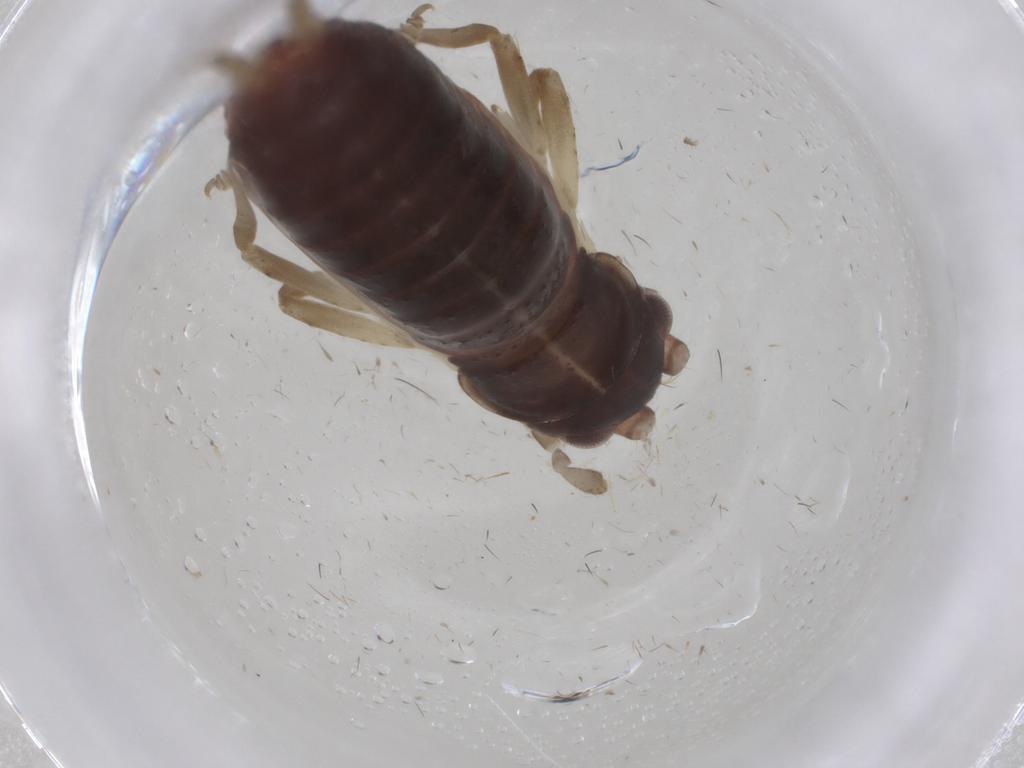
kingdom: Animalia
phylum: Arthropoda
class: Insecta
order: Orthoptera
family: Gryllidae
